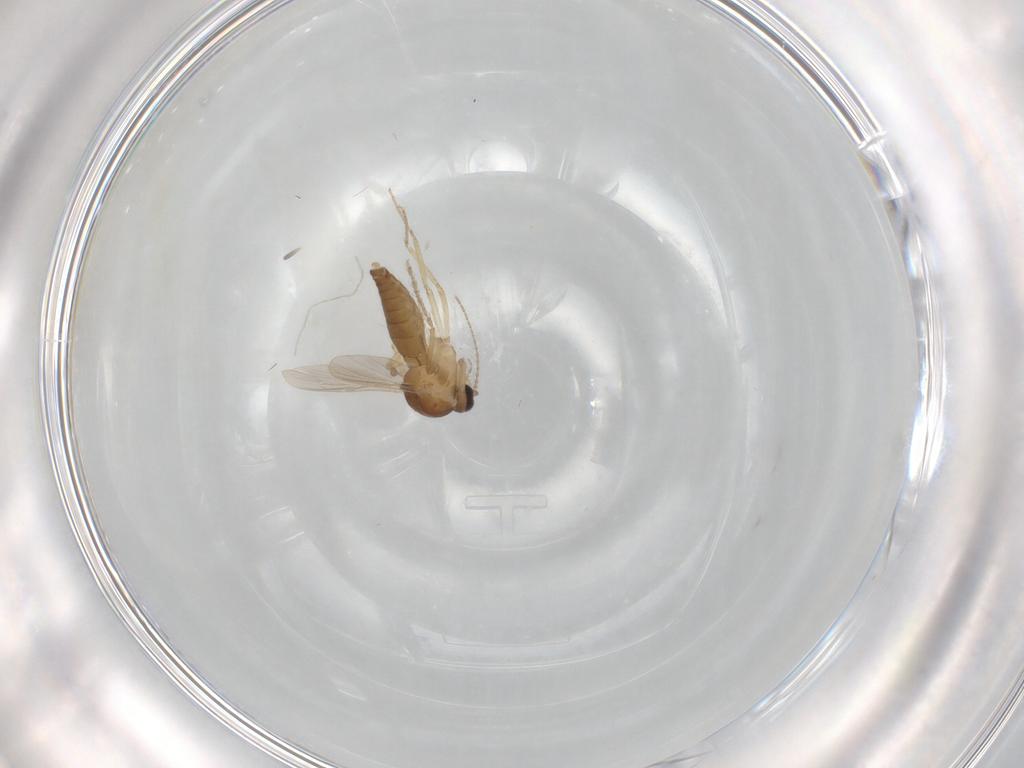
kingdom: Animalia
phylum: Arthropoda
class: Insecta
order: Diptera
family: Ceratopogonidae
